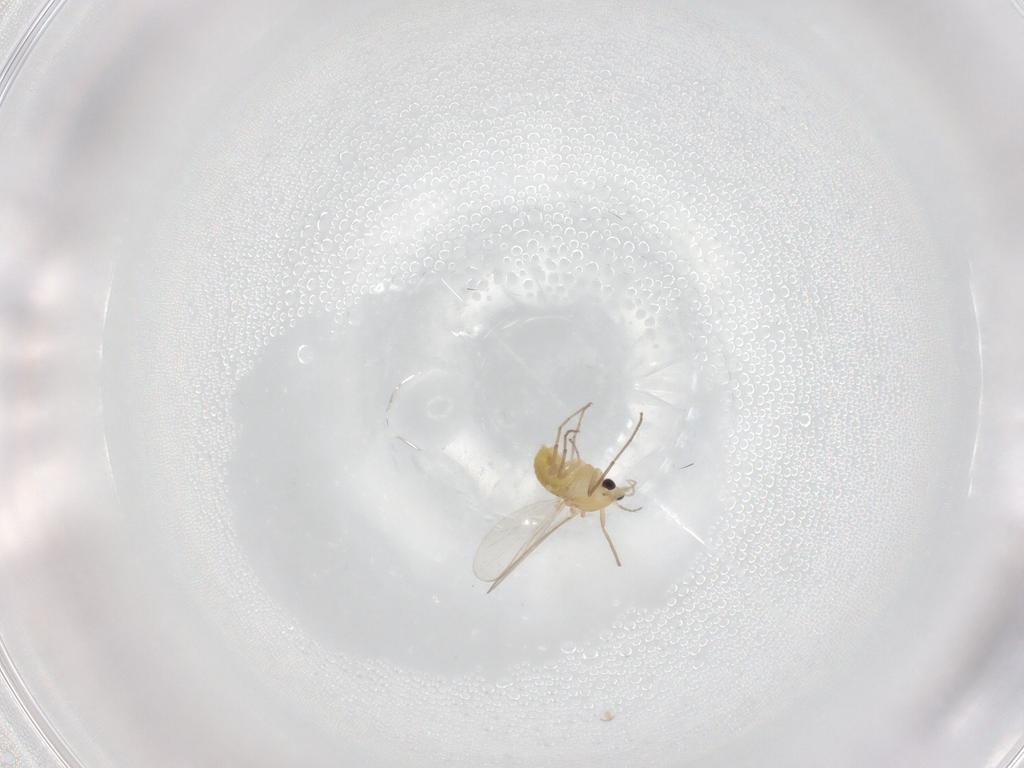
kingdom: Animalia
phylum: Arthropoda
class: Insecta
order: Diptera
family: Chironomidae
